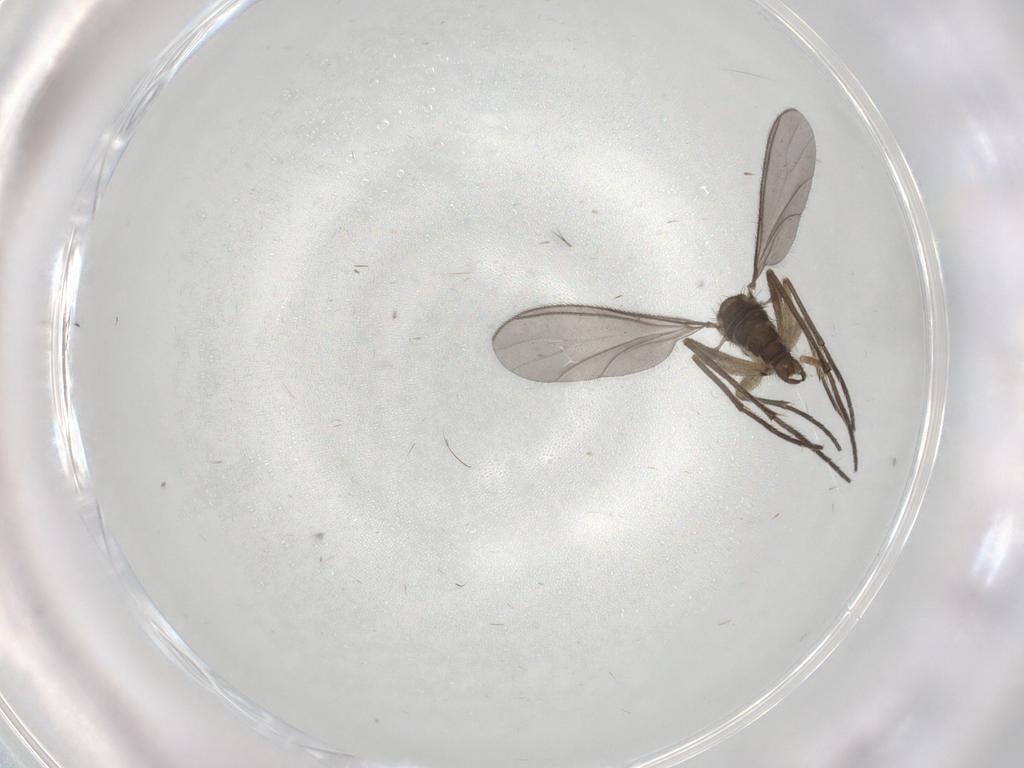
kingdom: Animalia
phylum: Arthropoda
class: Insecta
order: Diptera
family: Sciaridae
